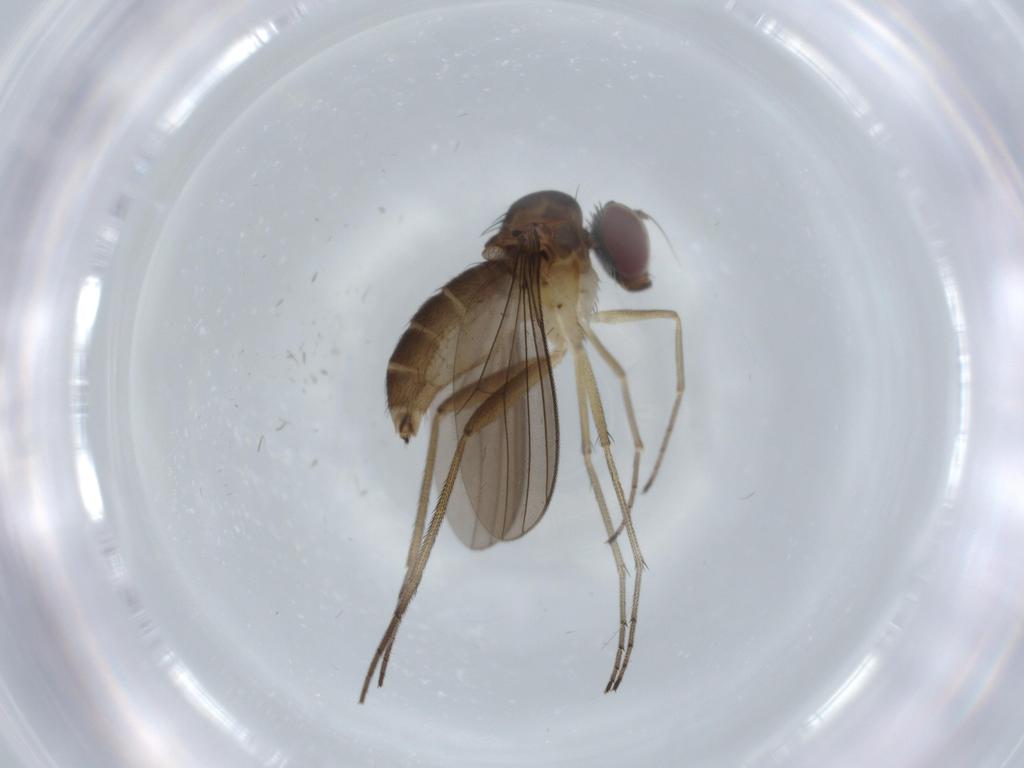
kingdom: Animalia
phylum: Arthropoda
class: Insecta
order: Diptera
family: Dolichopodidae
